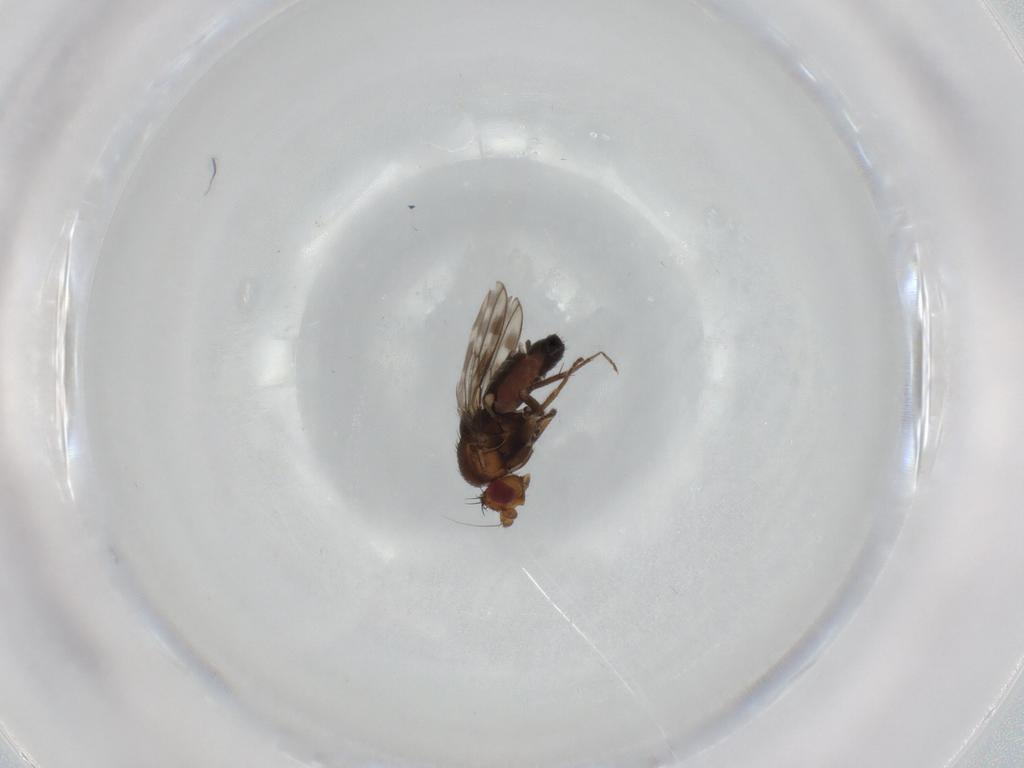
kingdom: Animalia
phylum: Arthropoda
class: Insecta
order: Diptera
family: Sphaeroceridae
